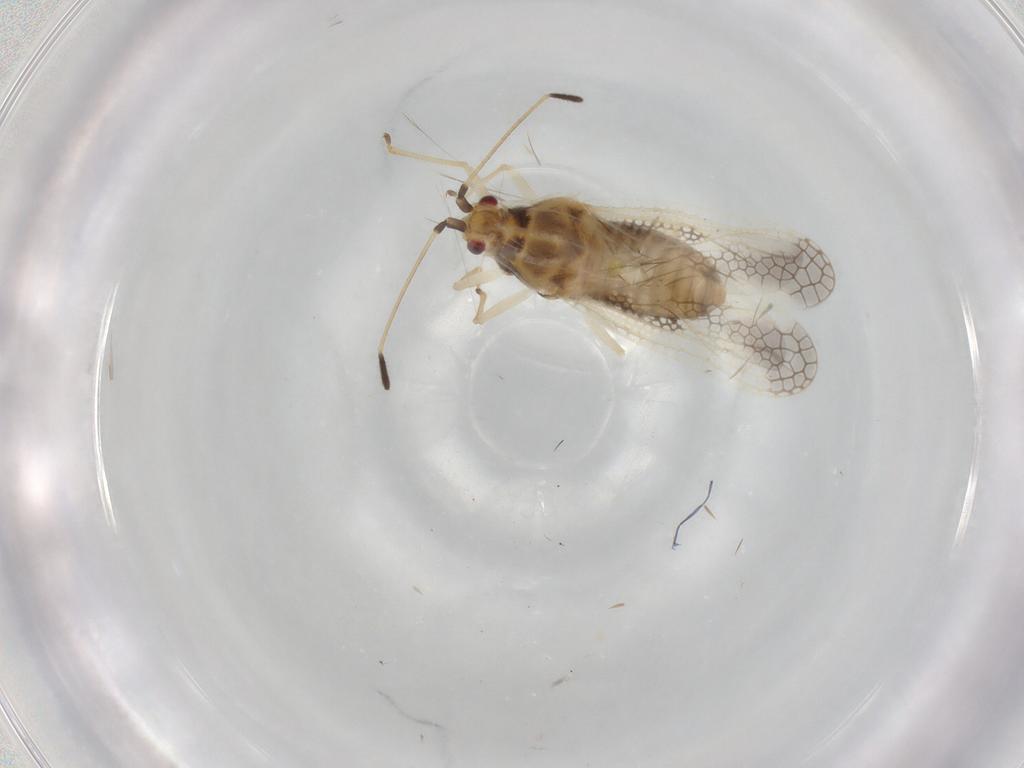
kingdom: Animalia
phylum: Arthropoda
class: Insecta
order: Hemiptera
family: Tingidae
